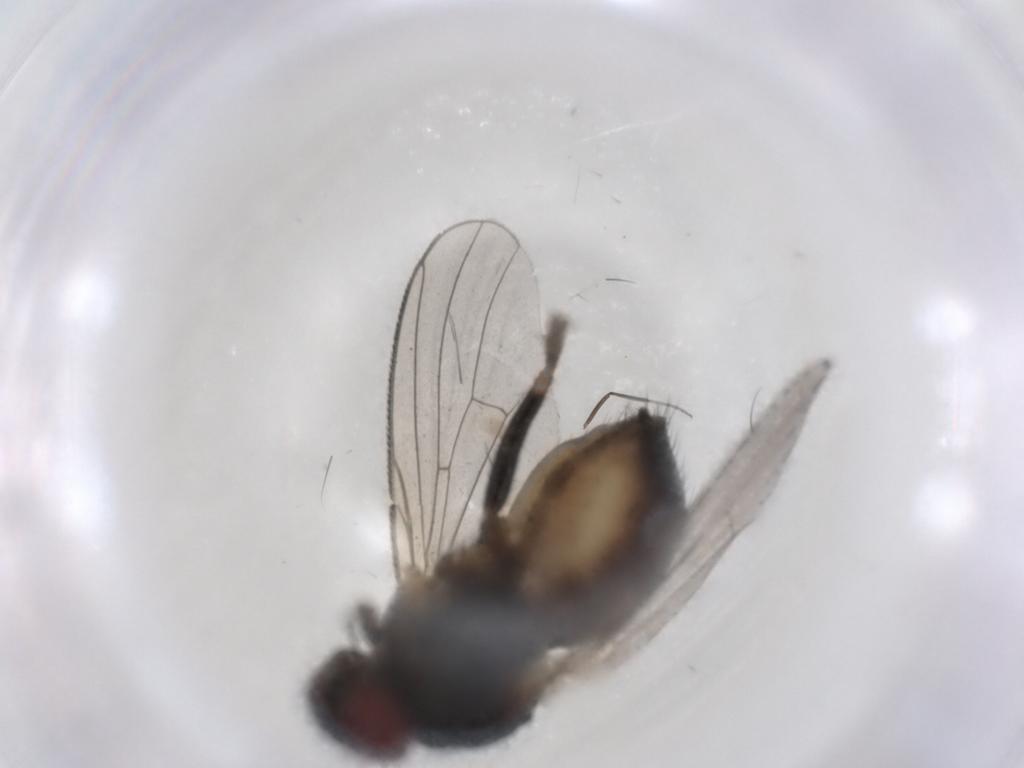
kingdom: Animalia
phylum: Arthropoda
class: Insecta
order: Diptera
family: Muscidae
